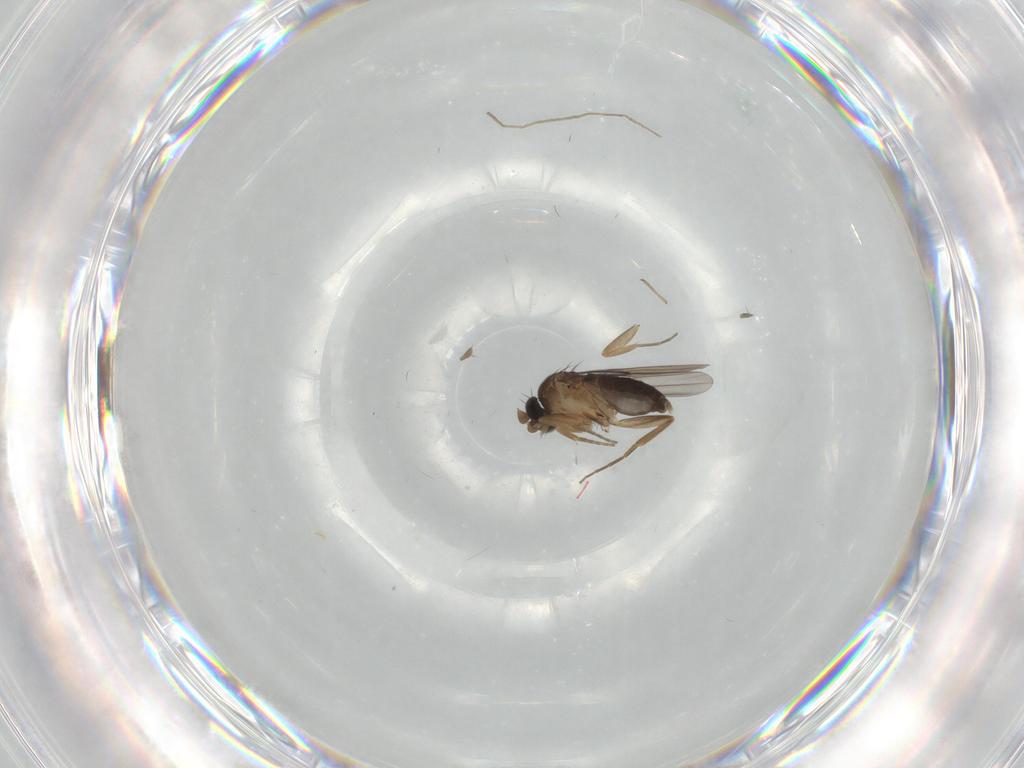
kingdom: Animalia
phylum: Arthropoda
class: Insecta
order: Diptera
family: Phoridae
